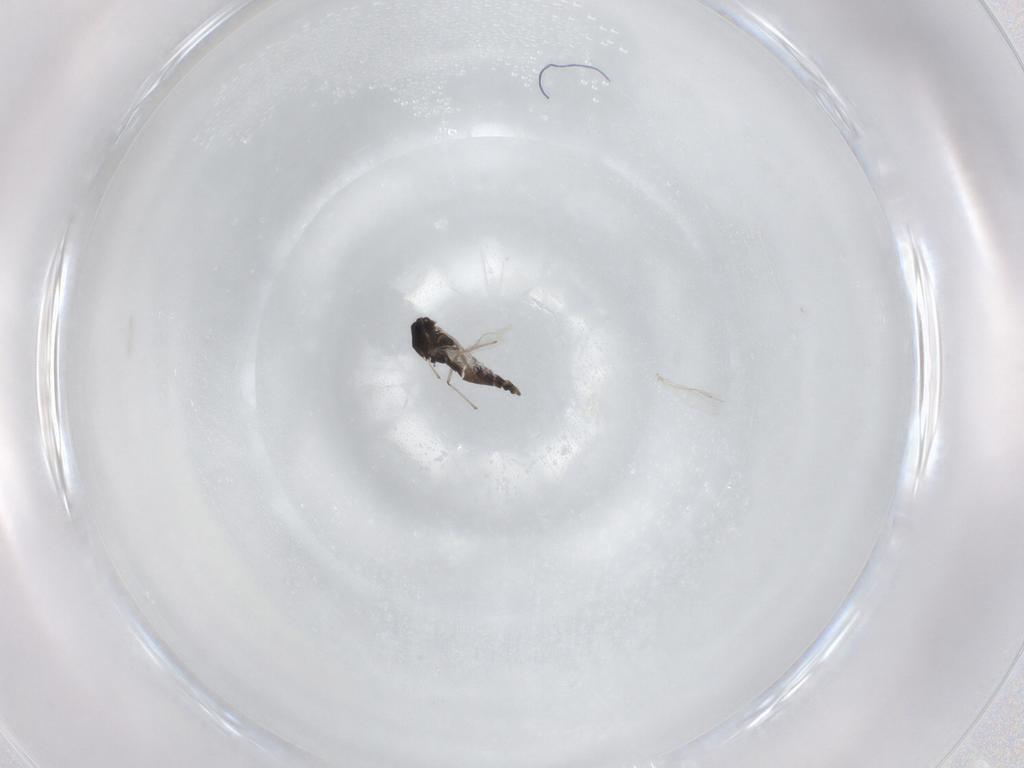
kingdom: Animalia
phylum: Arthropoda
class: Insecta
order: Diptera
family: Chironomidae
